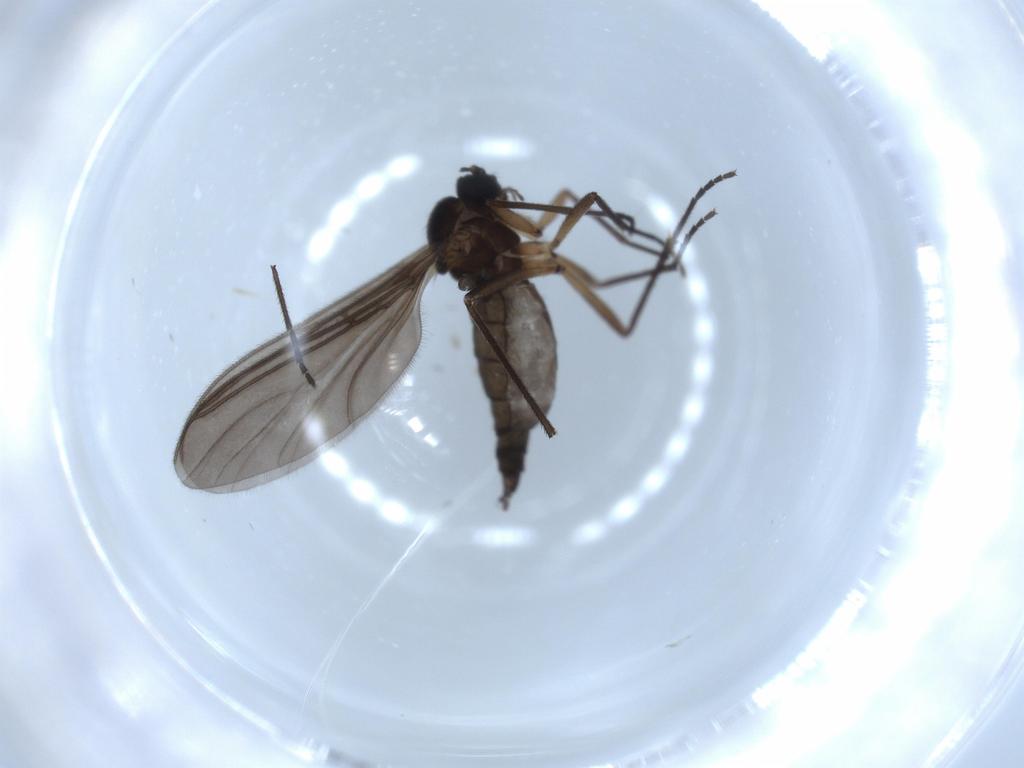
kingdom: Animalia
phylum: Arthropoda
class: Insecta
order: Diptera
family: Sciaridae
